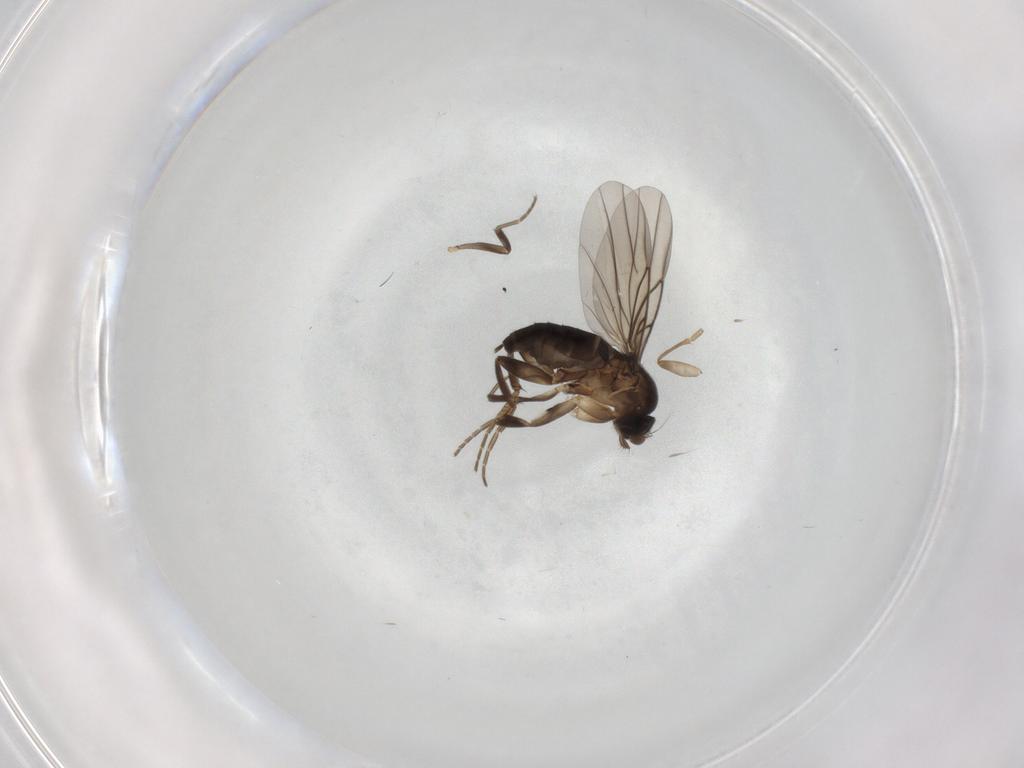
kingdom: Animalia
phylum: Arthropoda
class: Insecta
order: Diptera
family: Phoridae
